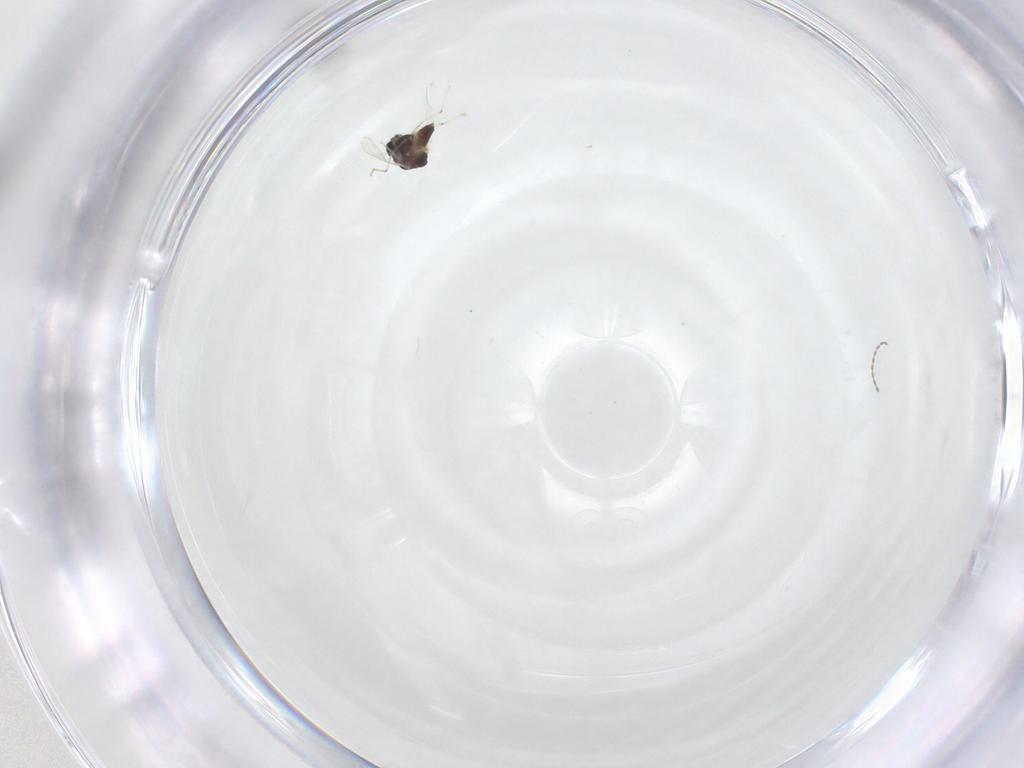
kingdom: Animalia
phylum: Arthropoda
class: Insecta
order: Diptera
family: Chironomidae
